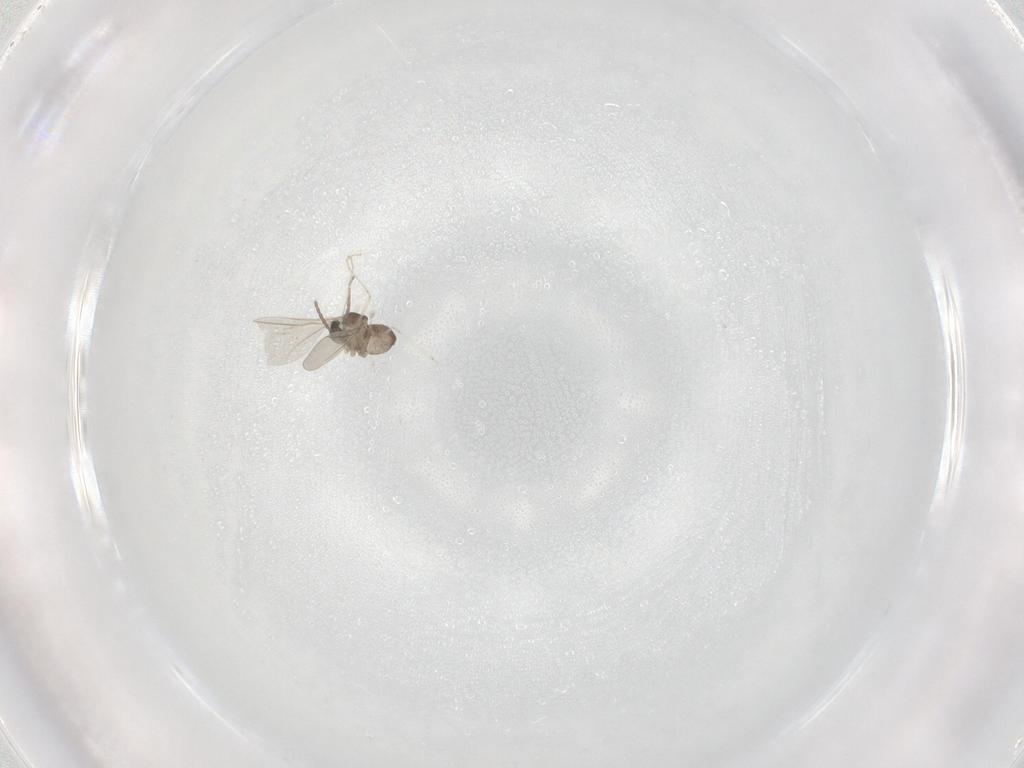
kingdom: Animalia
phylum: Arthropoda
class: Insecta
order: Diptera
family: Cecidomyiidae
